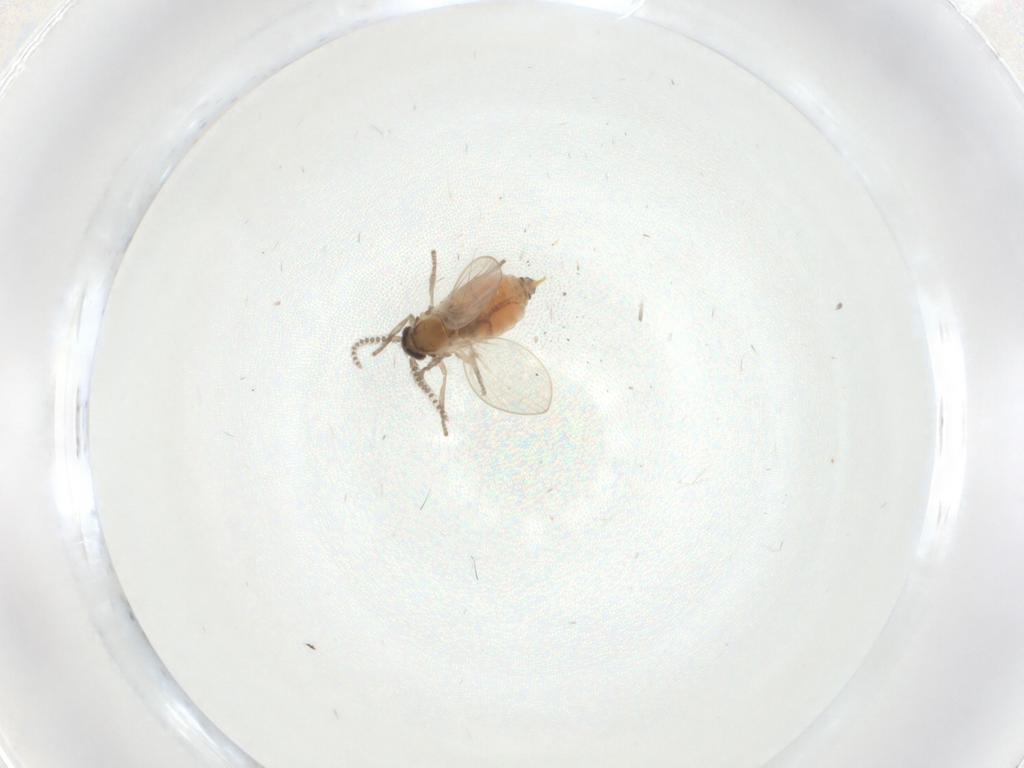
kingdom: Animalia
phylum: Arthropoda
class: Insecta
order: Diptera
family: Psychodidae
